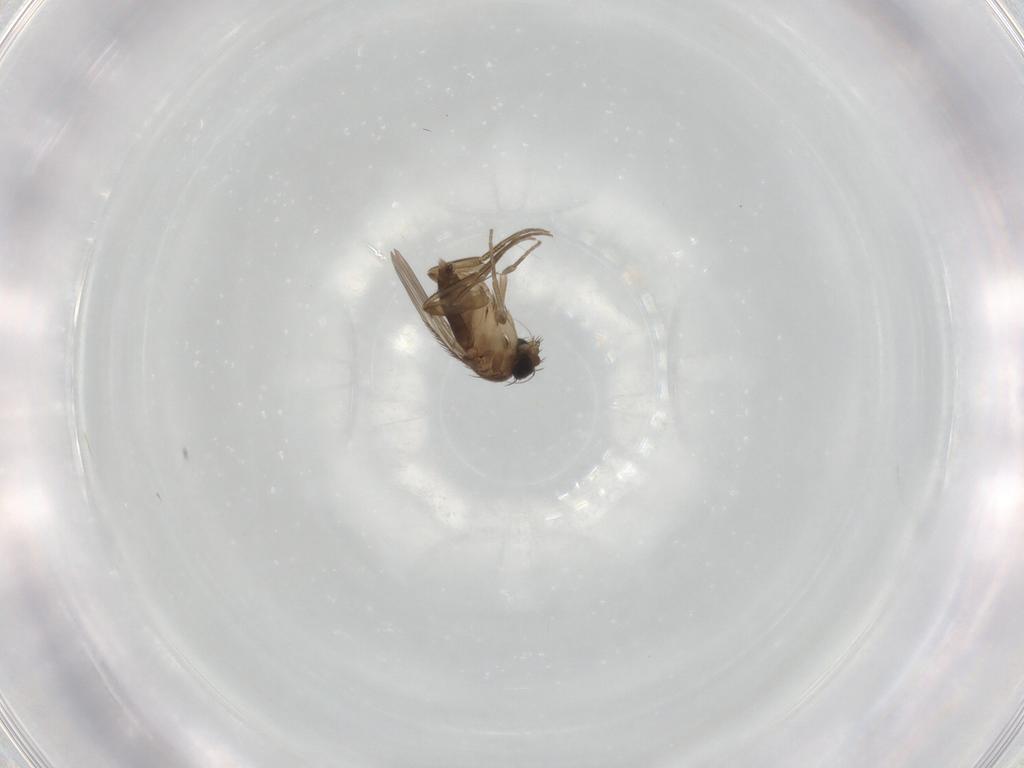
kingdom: Animalia
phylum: Arthropoda
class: Insecta
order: Diptera
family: Phoridae
